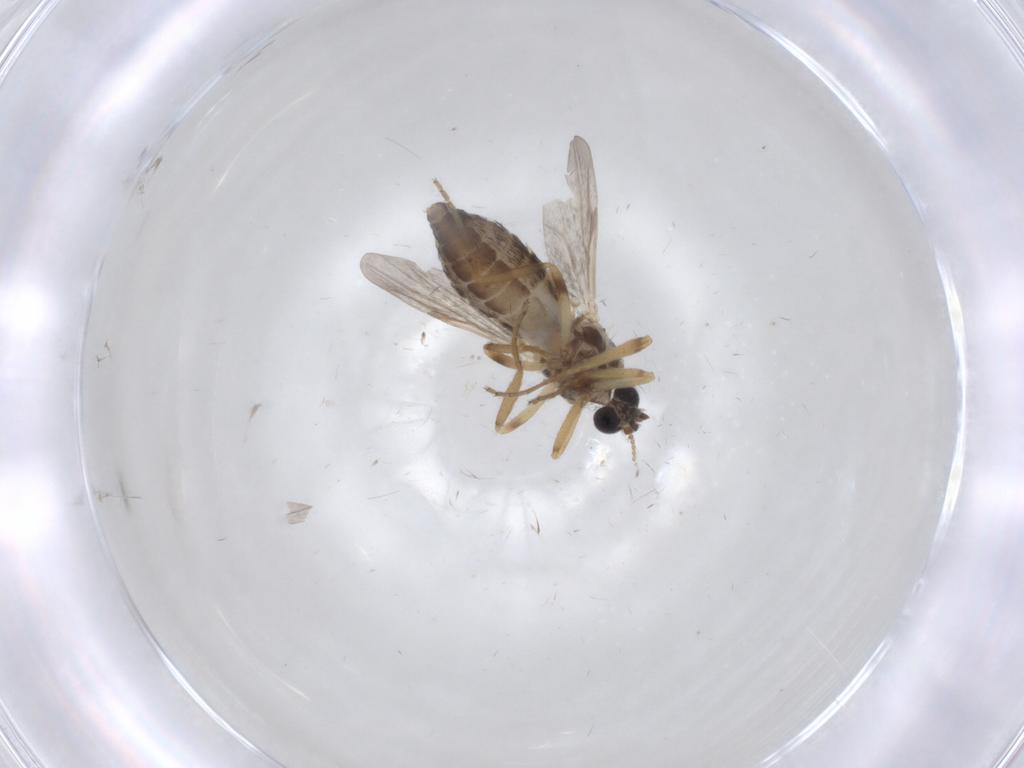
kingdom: Animalia
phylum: Arthropoda
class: Insecta
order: Diptera
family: Ceratopogonidae
